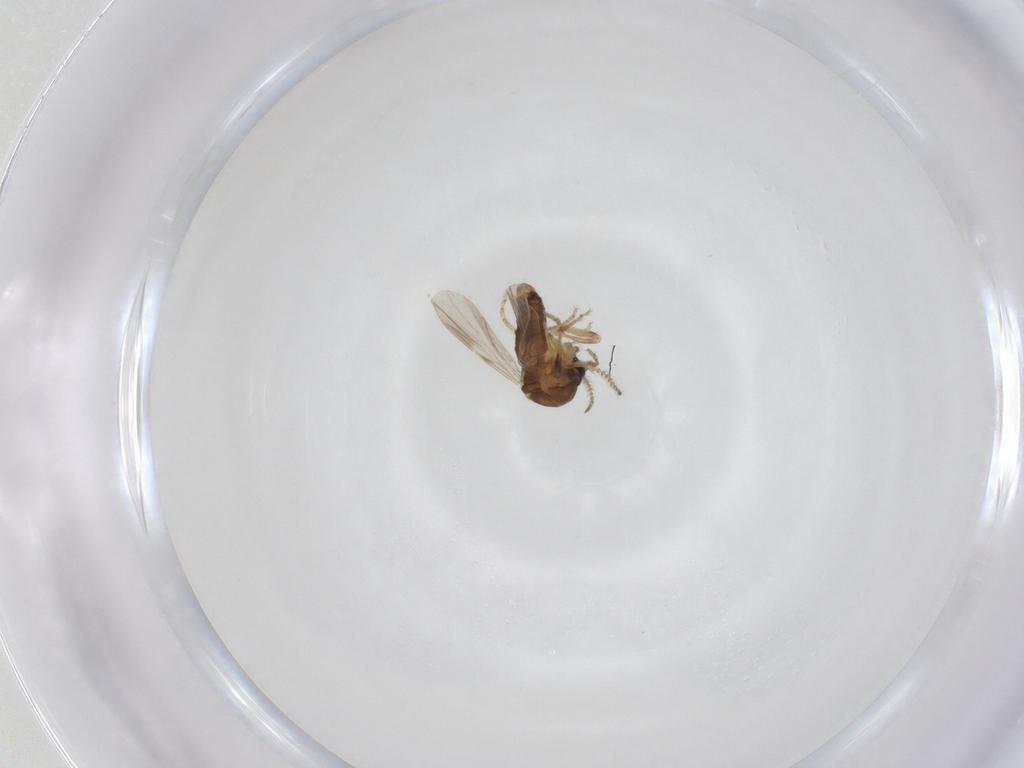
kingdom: Animalia
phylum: Arthropoda
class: Insecta
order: Diptera
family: Ceratopogonidae
